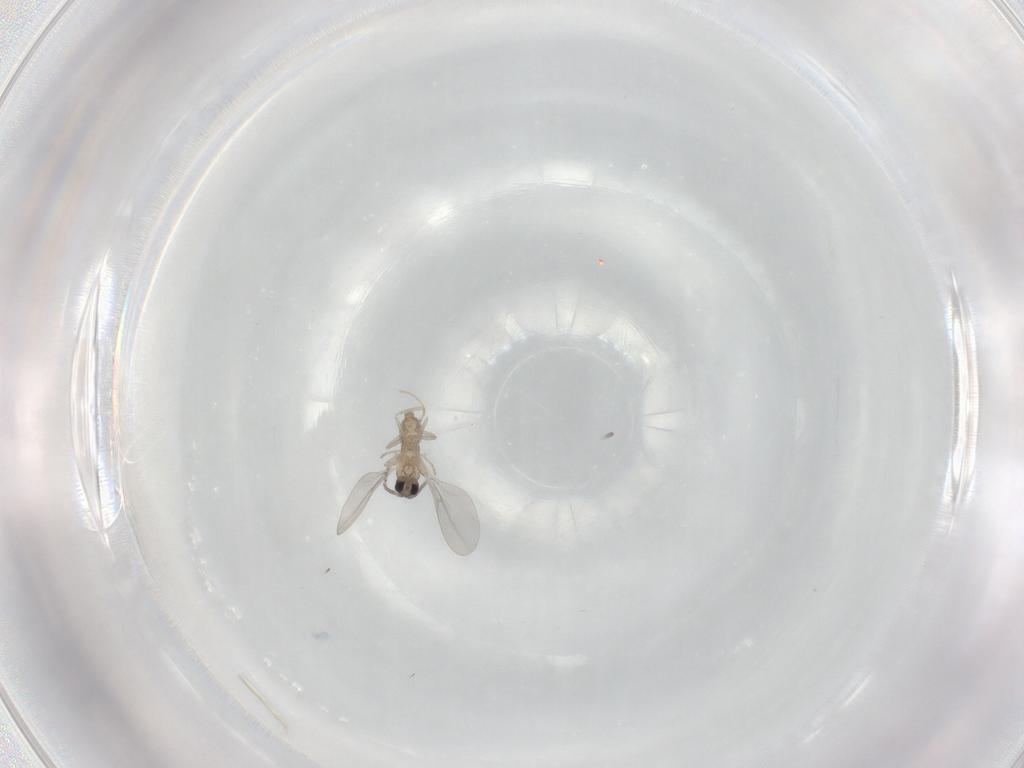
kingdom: Animalia
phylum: Arthropoda
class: Insecta
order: Diptera
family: Cecidomyiidae
